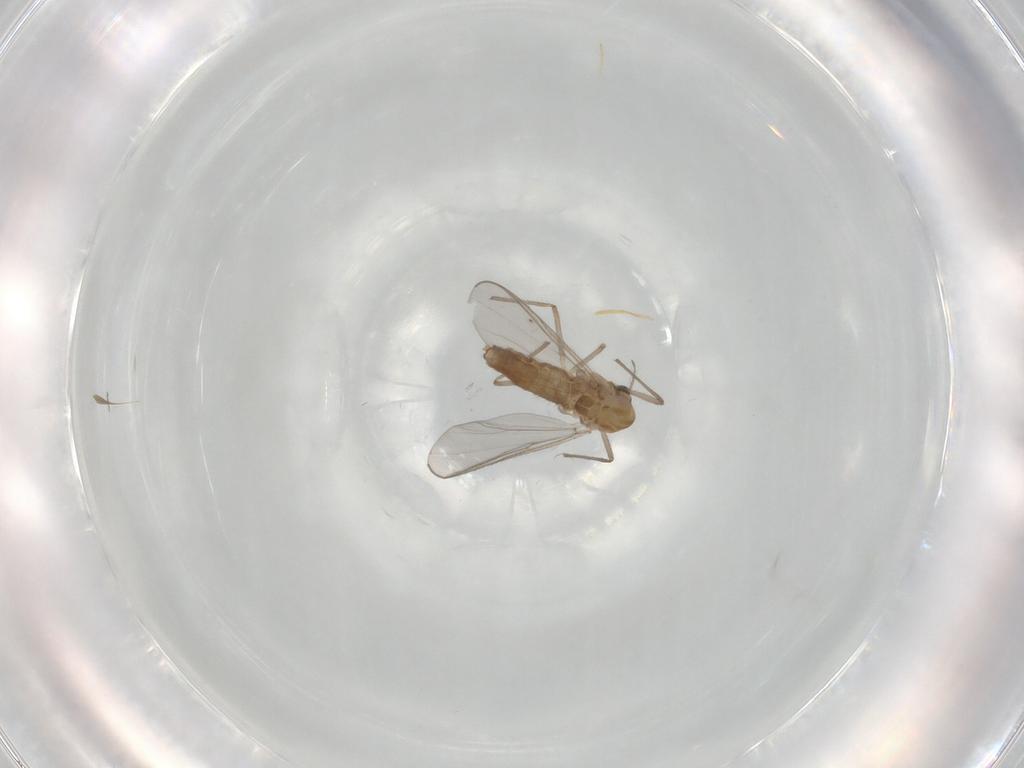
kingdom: Animalia
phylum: Arthropoda
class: Insecta
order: Diptera
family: Chironomidae
